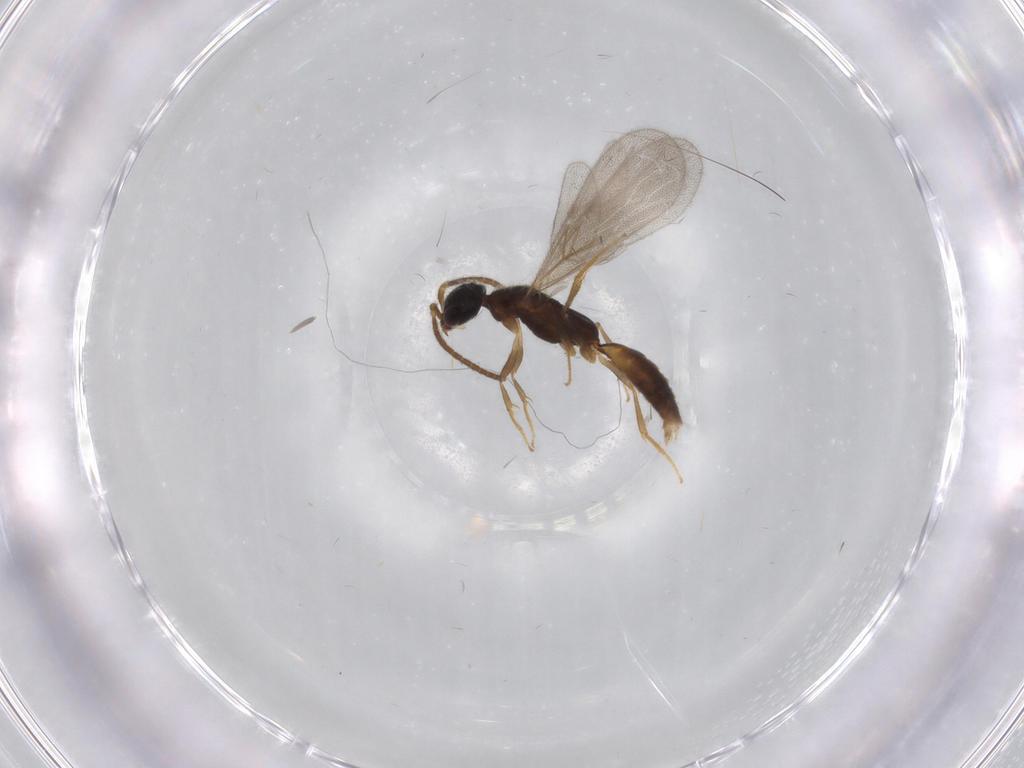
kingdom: Animalia
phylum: Arthropoda
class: Insecta
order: Hymenoptera
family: Bethylidae
